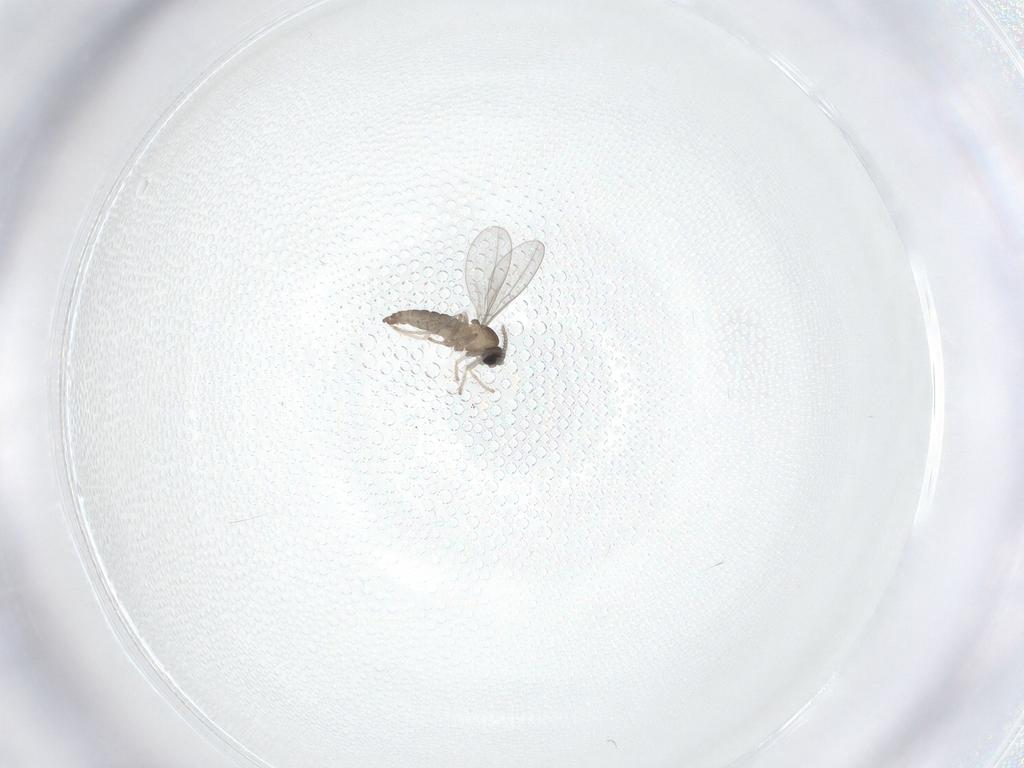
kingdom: Animalia
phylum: Arthropoda
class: Insecta
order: Diptera
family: Cecidomyiidae
